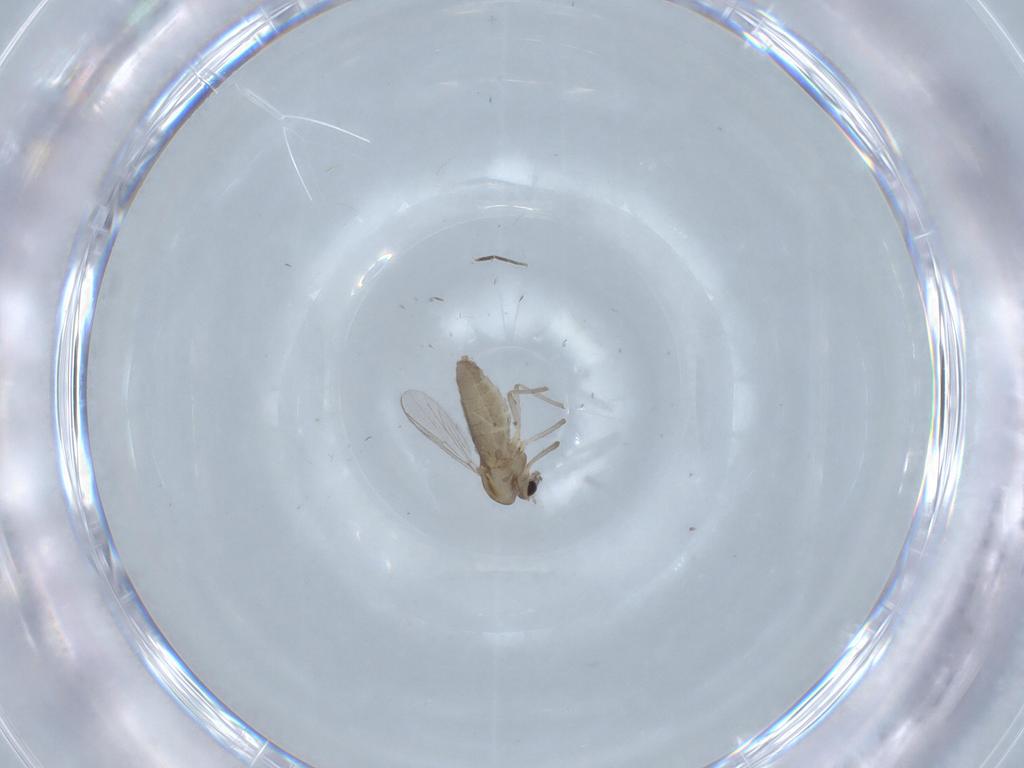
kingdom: Animalia
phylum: Arthropoda
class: Insecta
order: Diptera
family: Chironomidae
